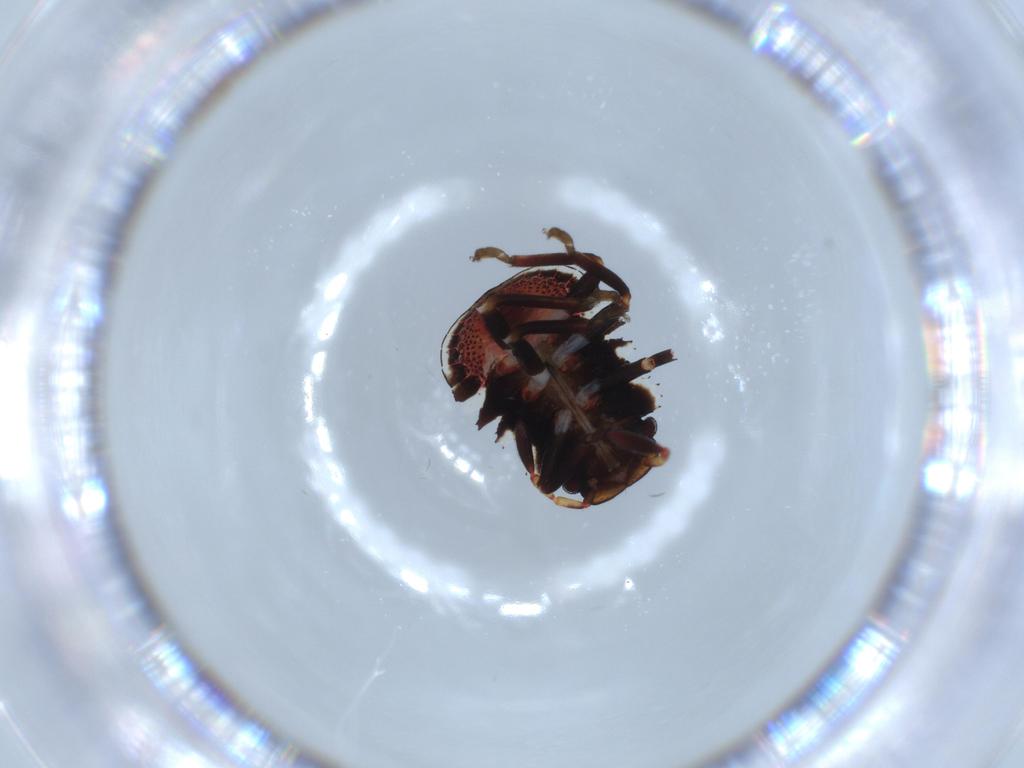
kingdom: Animalia
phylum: Arthropoda
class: Insecta
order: Hemiptera
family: Pentatomidae
